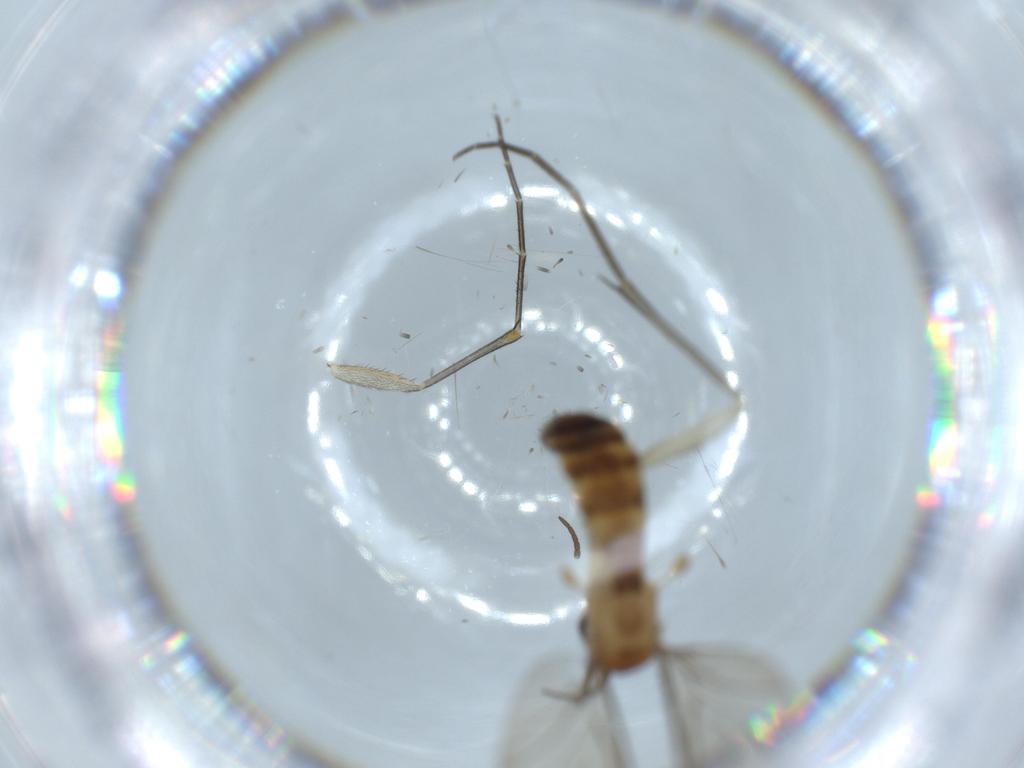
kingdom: Animalia
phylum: Arthropoda
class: Insecta
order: Diptera
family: Keroplatidae
